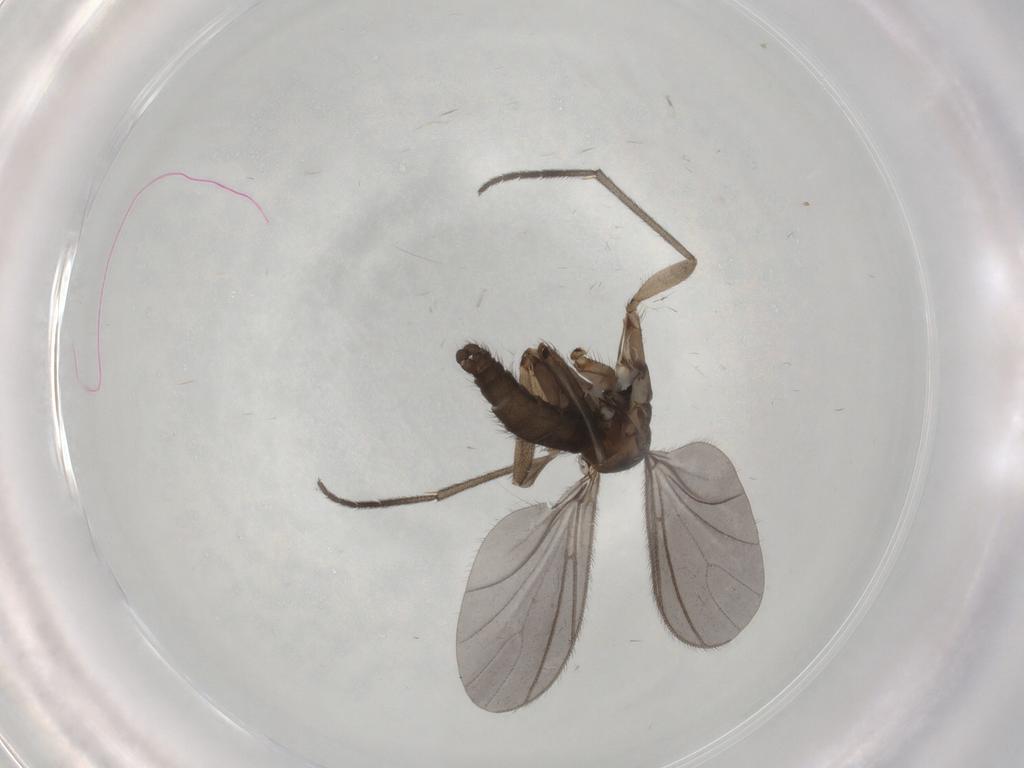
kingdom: Animalia
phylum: Arthropoda
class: Insecta
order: Diptera
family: Sciaridae
